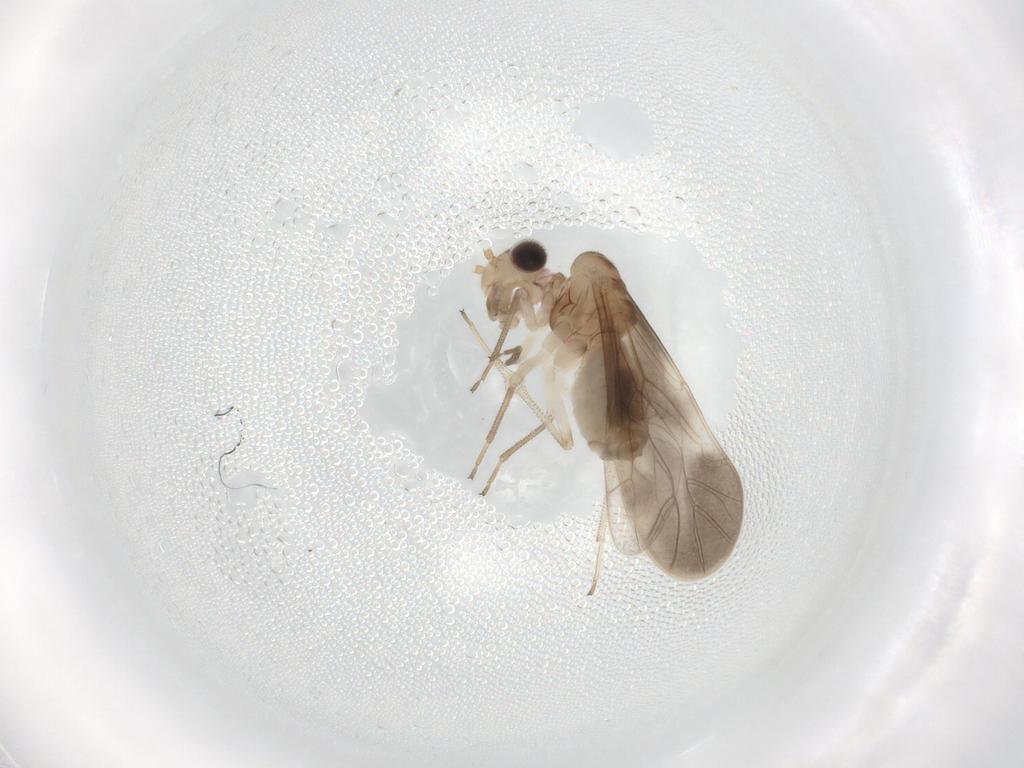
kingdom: Animalia
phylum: Arthropoda
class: Insecta
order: Psocodea
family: Caeciliusidae
